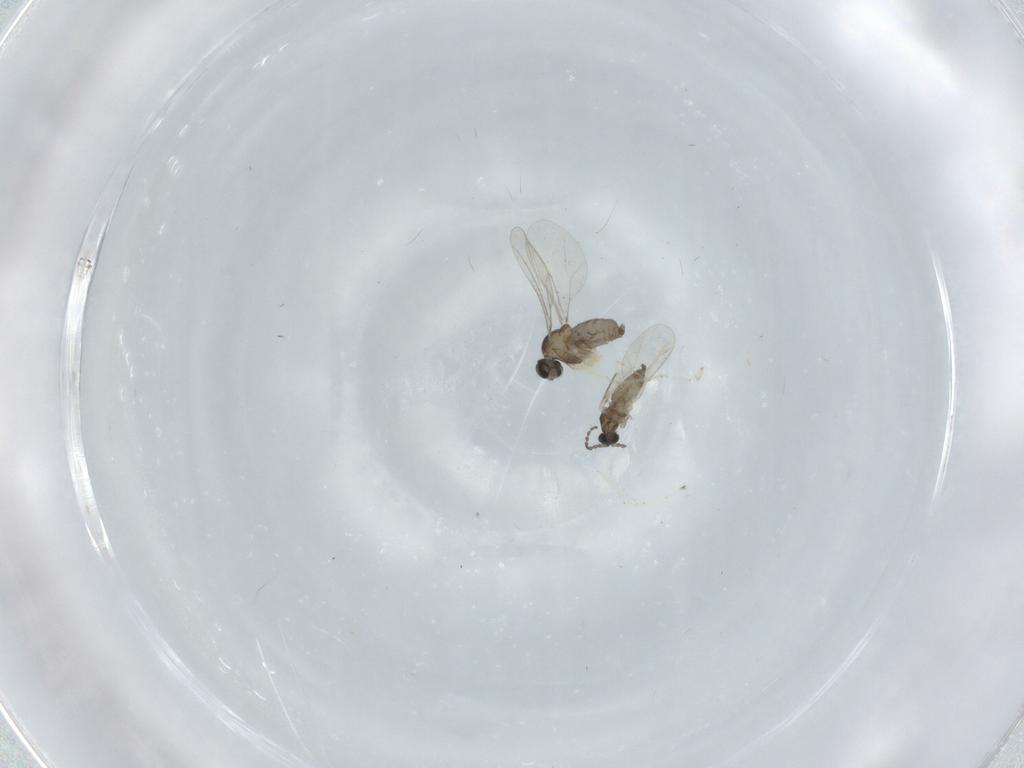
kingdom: Animalia
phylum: Arthropoda
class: Insecta
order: Diptera
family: Cecidomyiidae
